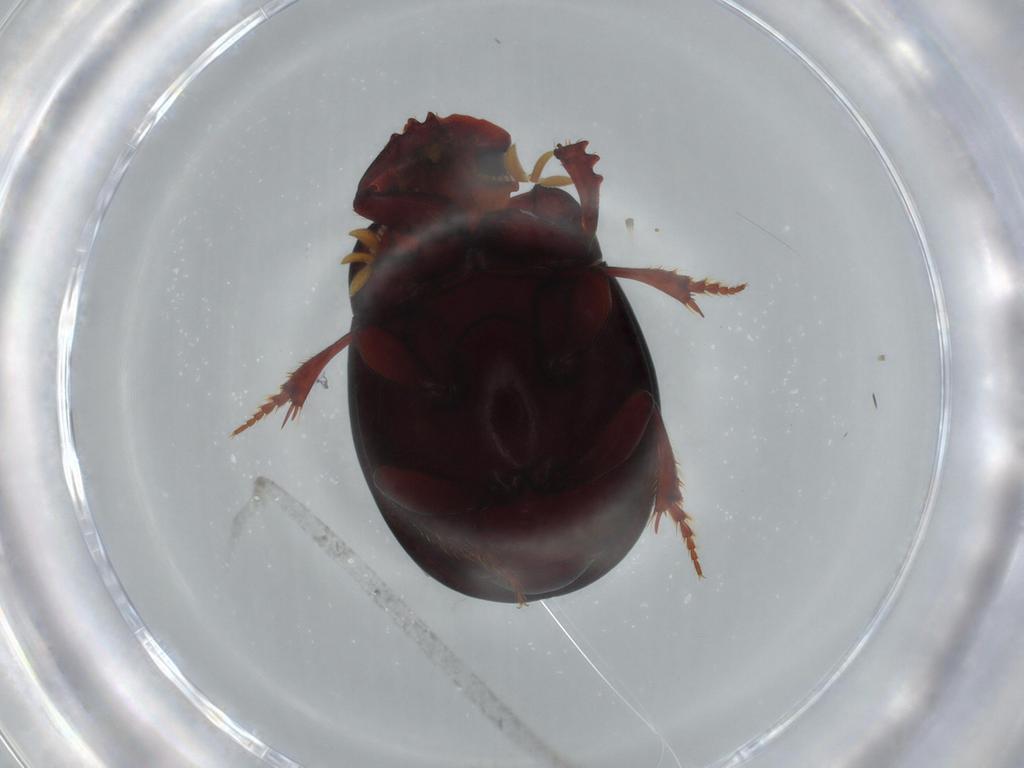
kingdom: Animalia
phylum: Arthropoda
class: Insecta
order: Coleoptera
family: Scarabaeidae
